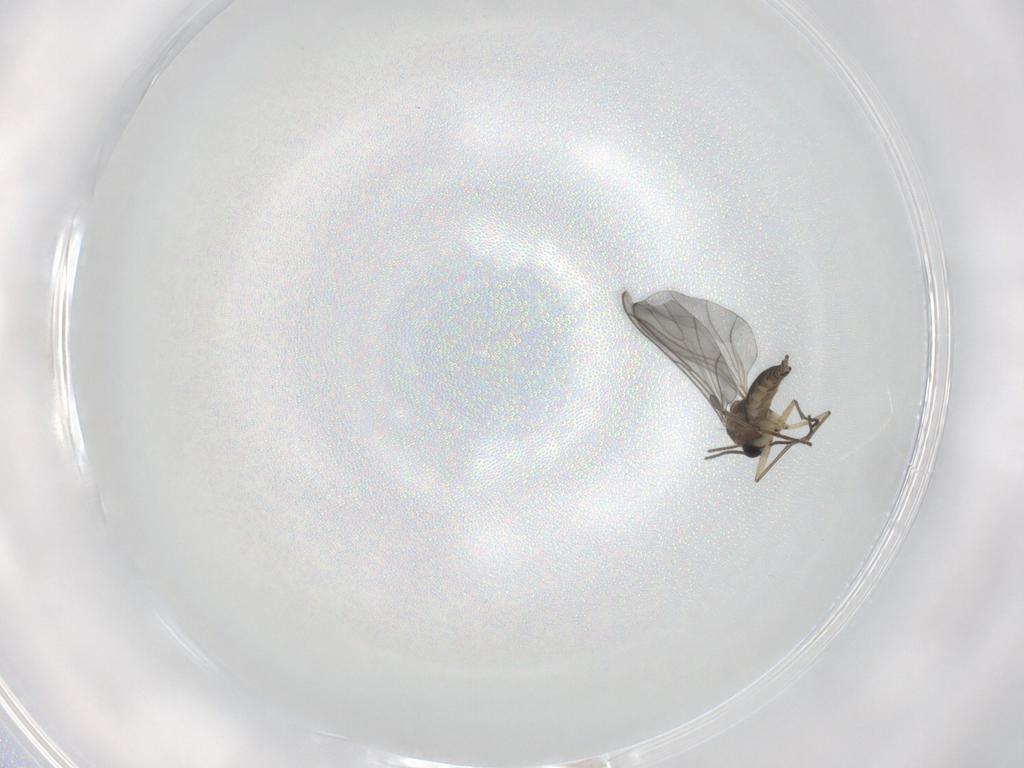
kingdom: Animalia
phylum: Arthropoda
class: Insecta
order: Diptera
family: Sciaridae
